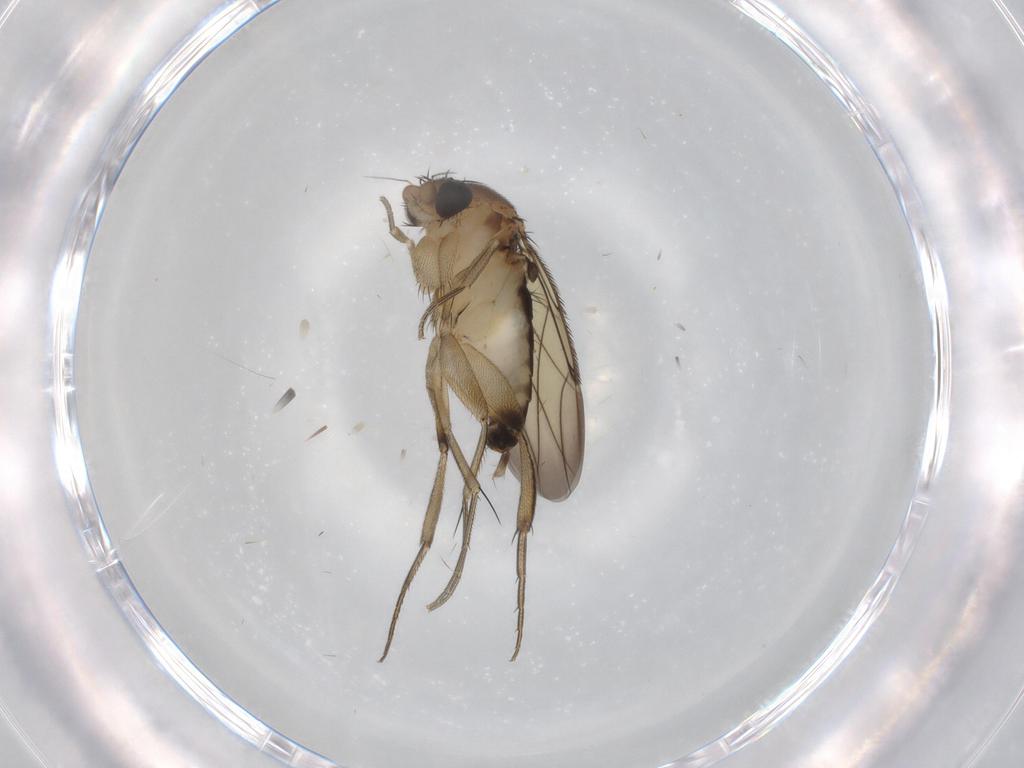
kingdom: Animalia
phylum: Arthropoda
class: Insecta
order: Diptera
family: Phoridae
